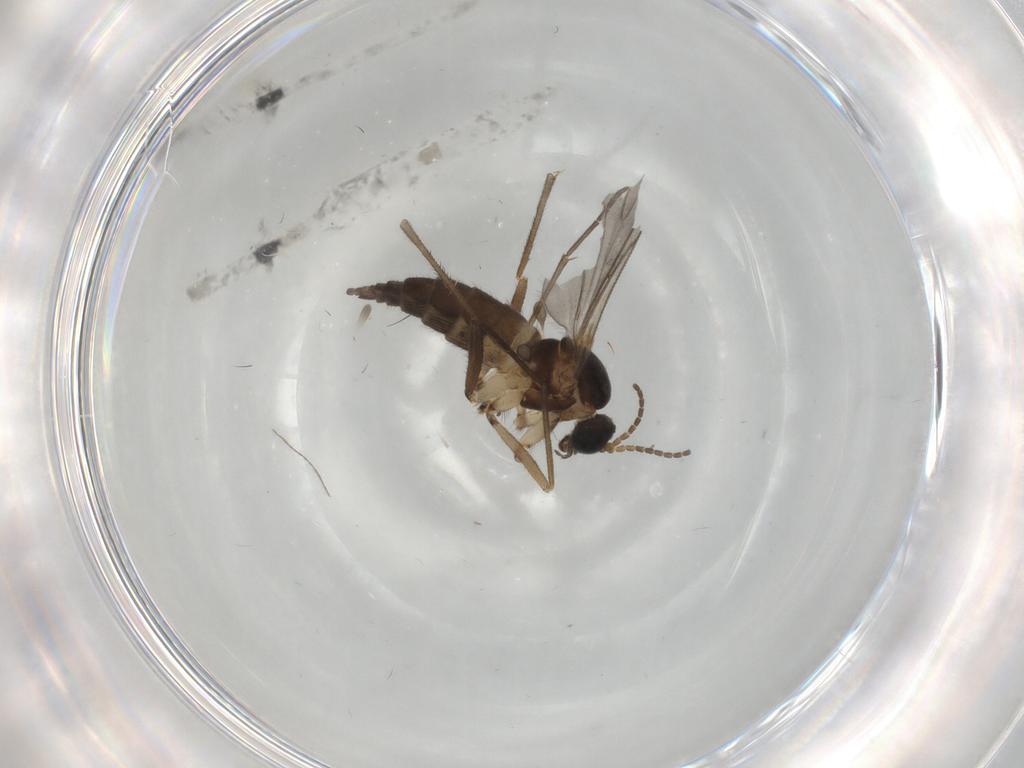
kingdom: Animalia
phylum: Arthropoda
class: Insecta
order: Diptera
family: Sciaridae
